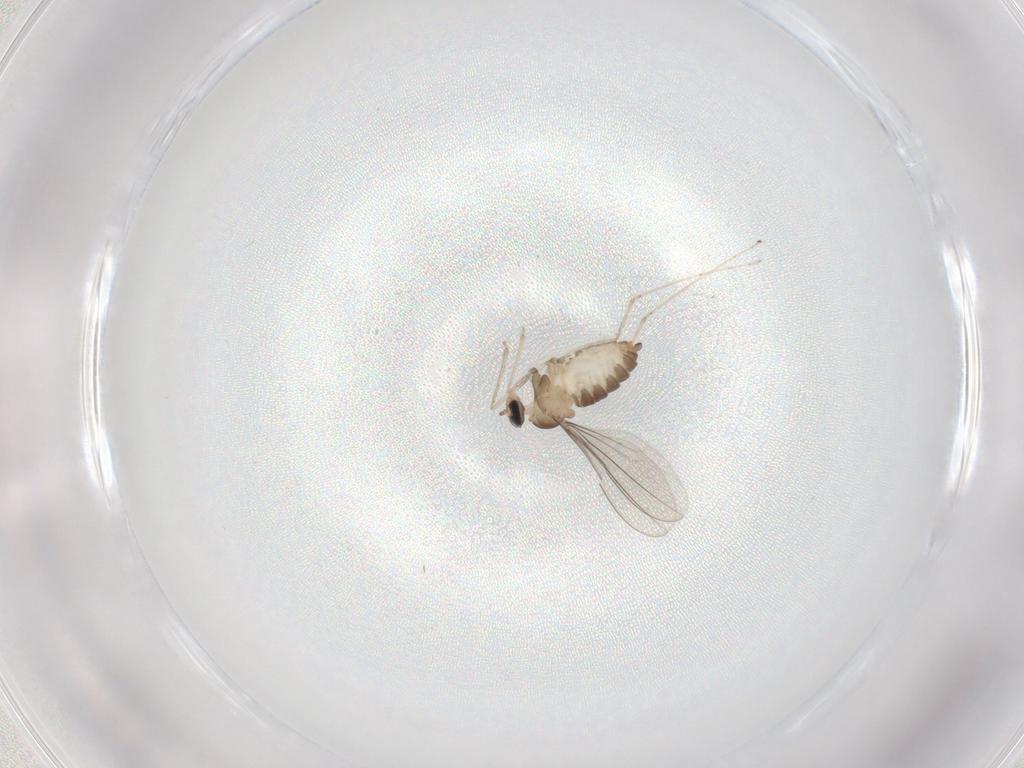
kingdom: Animalia
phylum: Arthropoda
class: Insecta
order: Diptera
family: Cecidomyiidae
